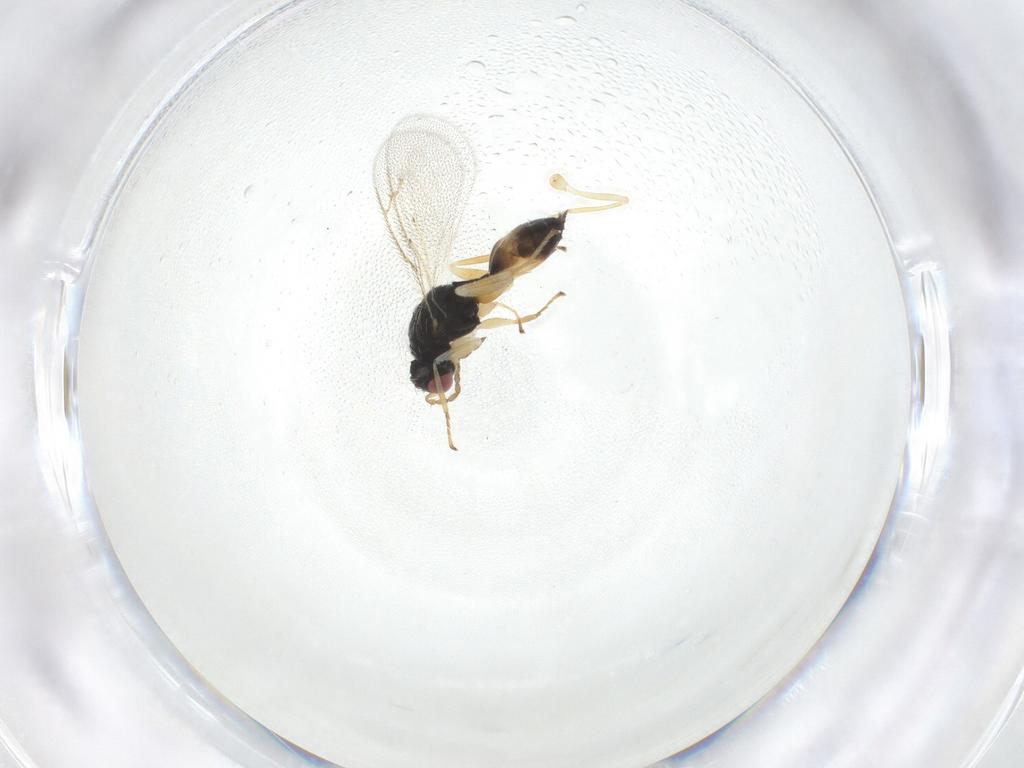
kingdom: Animalia
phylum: Arthropoda
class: Insecta
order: Hymenoptera
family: Eulophidae
